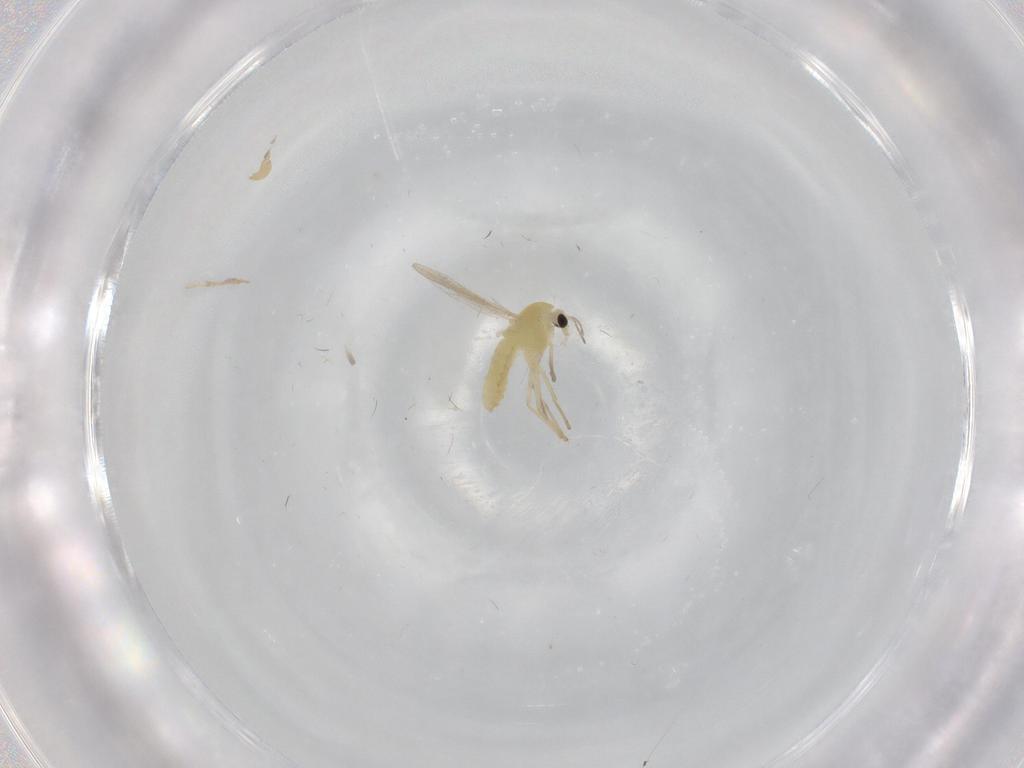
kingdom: Animalia
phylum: Arthropoda
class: Insecta
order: Diptera
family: Chironomidae
